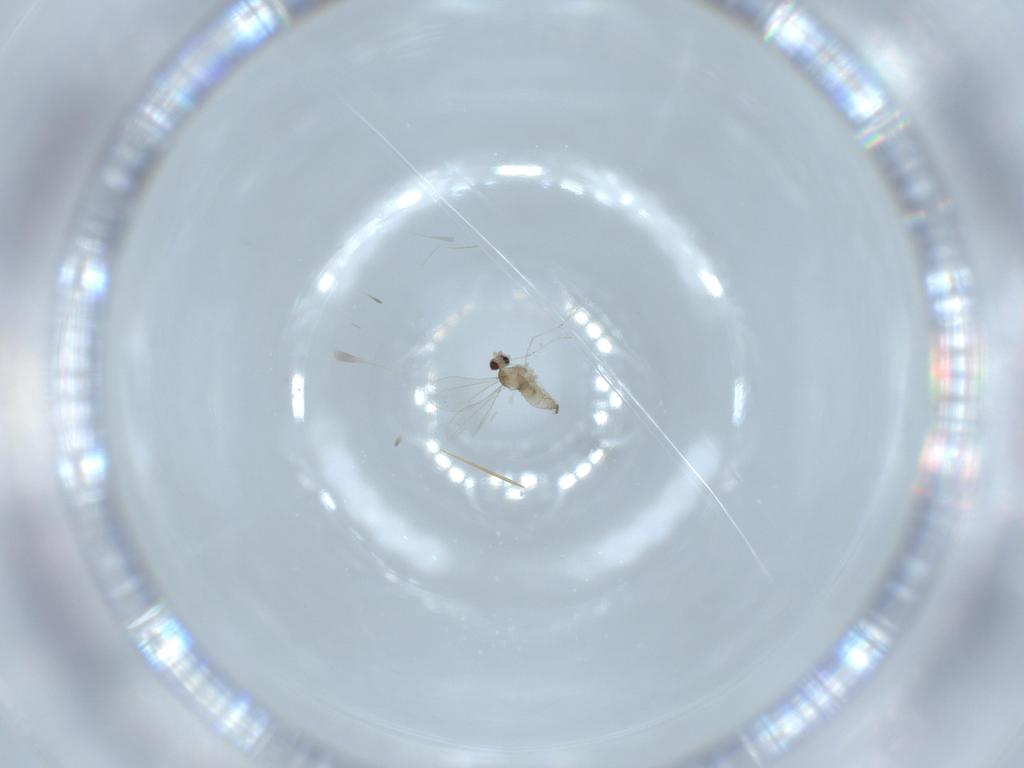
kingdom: Animalia
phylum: Arthropoda
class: Insecta
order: Diptera
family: Cecidomyiidae
